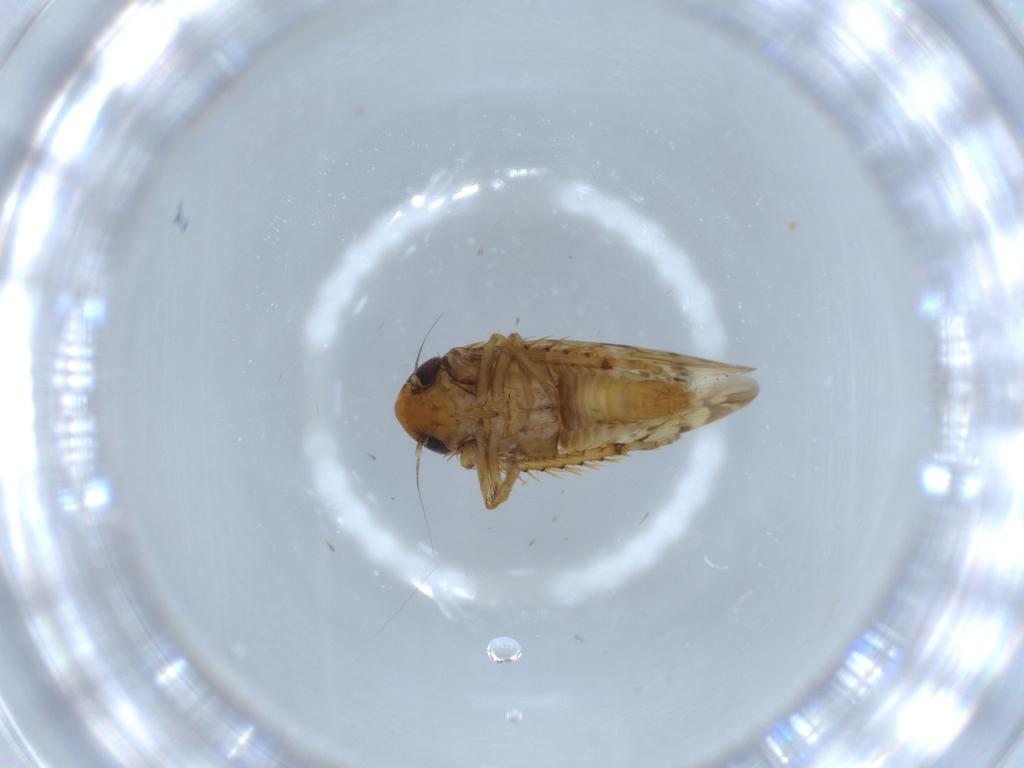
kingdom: Animalia
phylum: Arthropoda
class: Insecta
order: Hemiptera
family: Cicadellidae
